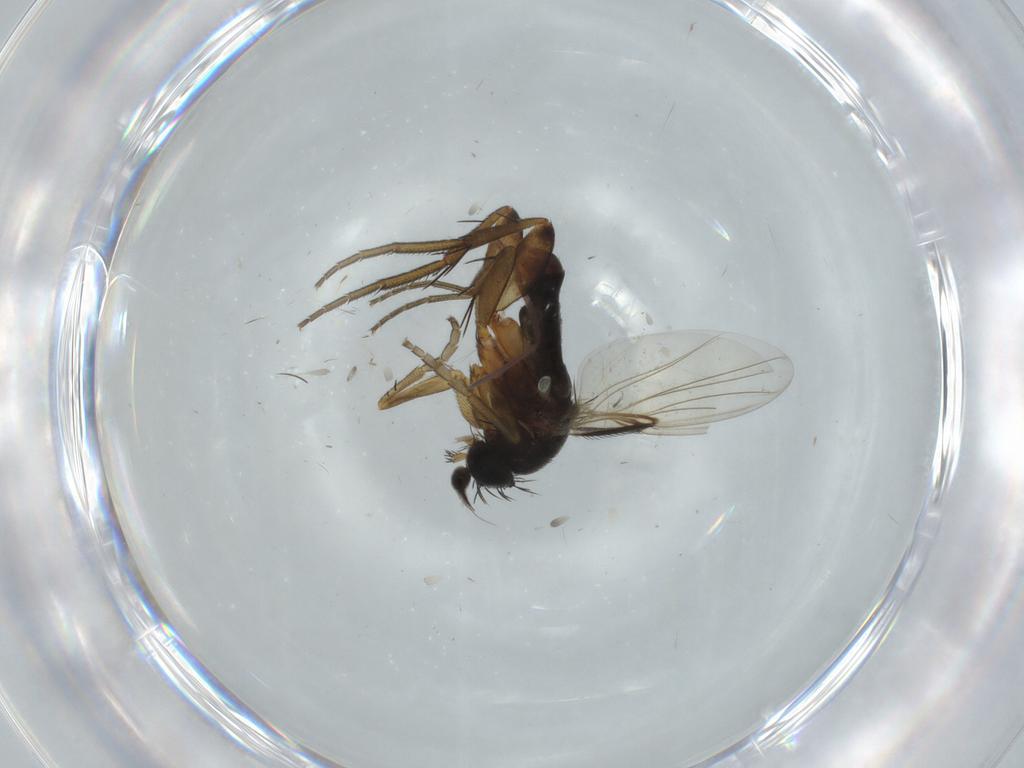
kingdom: Animalia
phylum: Arthropoda
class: Insecta
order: Diptera
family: Phoridae
